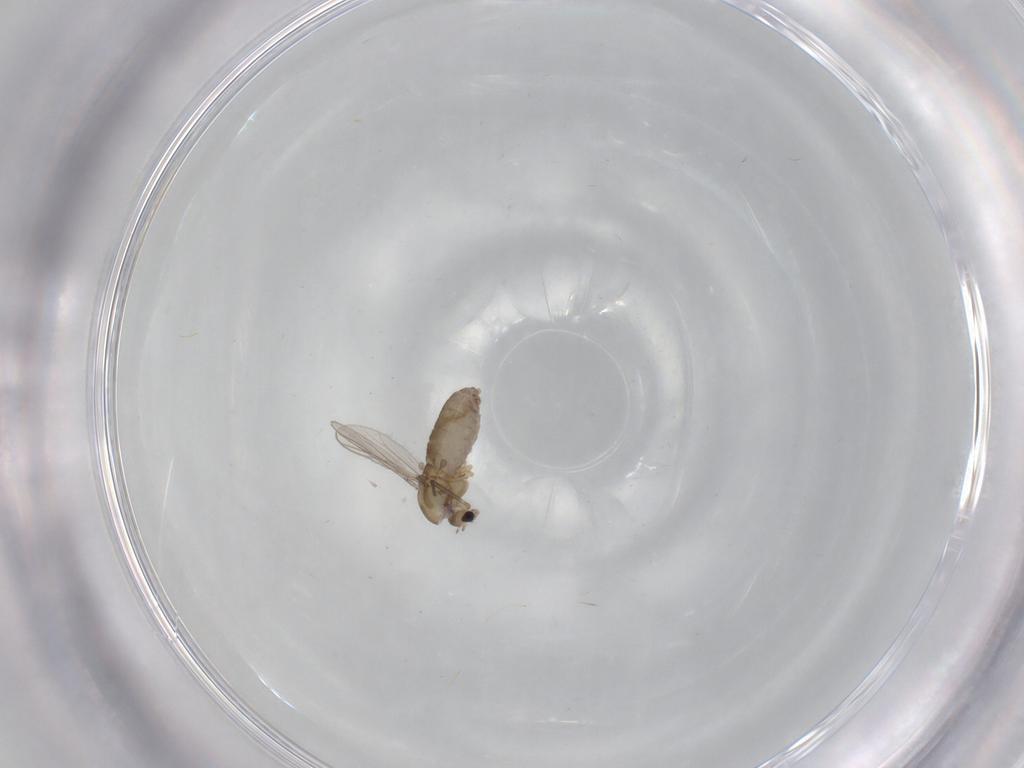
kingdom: Animalia
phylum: Arthropoda
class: Insecta
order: Diptera
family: Chironomidae
